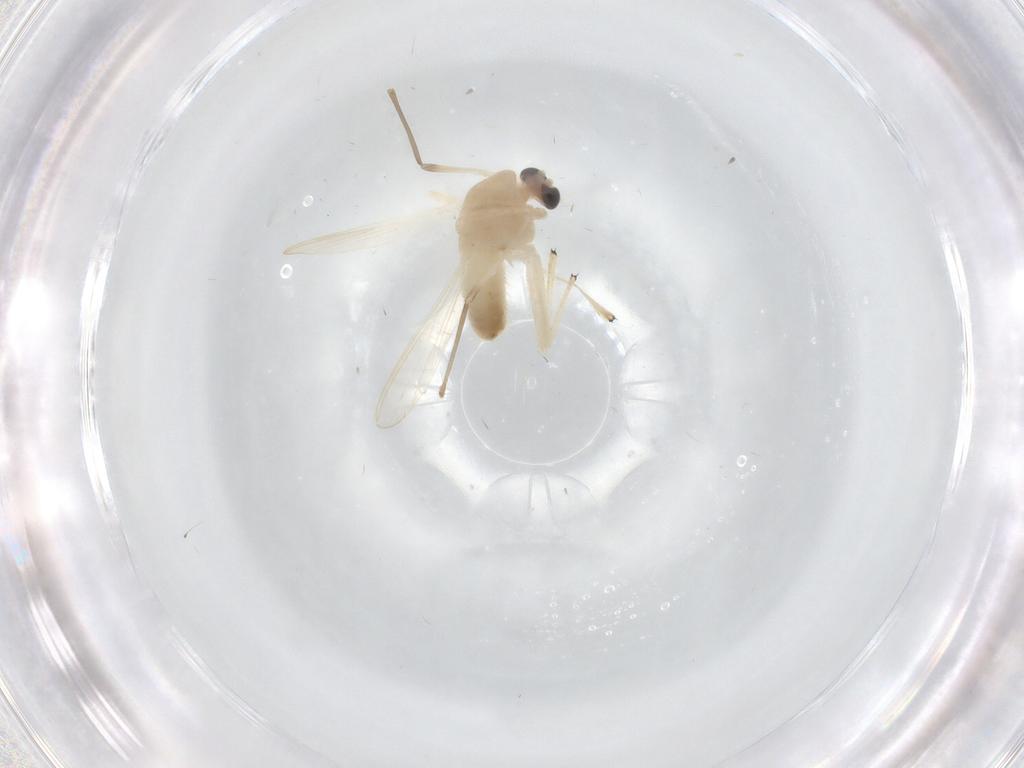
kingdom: Animalia
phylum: Arthropoda
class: Insecta
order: Diptera
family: Chironomidae
